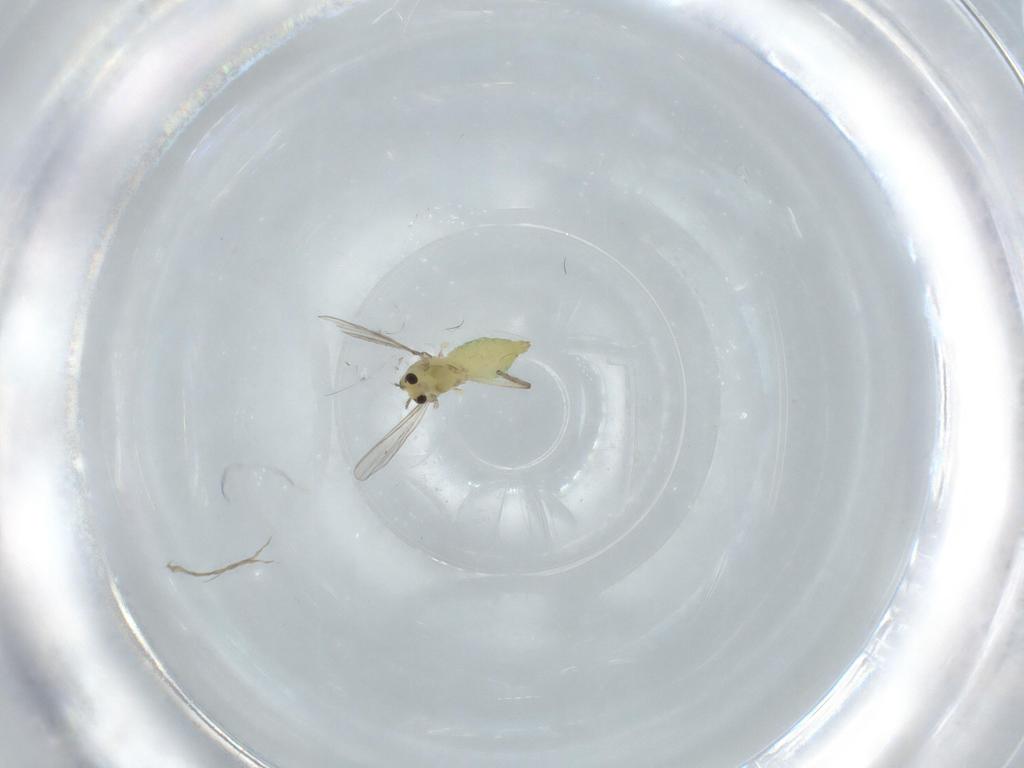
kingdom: Animalia
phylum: Arthropoda
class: Insecta
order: Diptera
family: Chironomidae
